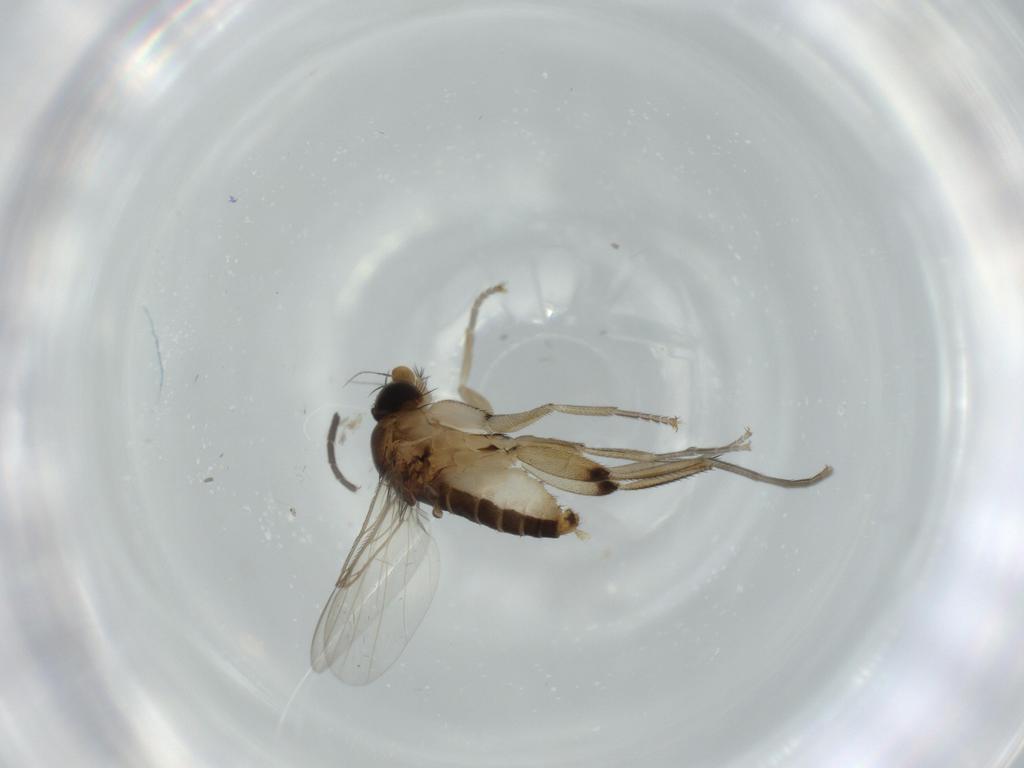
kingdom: Animalia
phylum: Arthropoda
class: Insecta
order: Diptera
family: Phoridae
